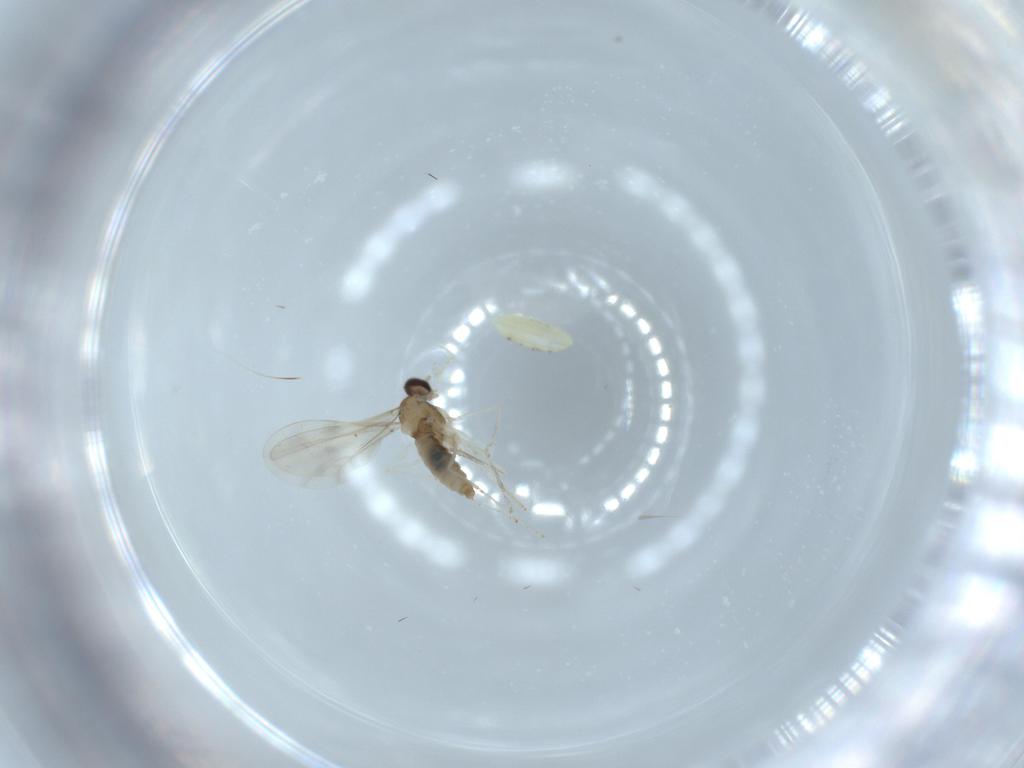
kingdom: Animalia
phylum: Arthropoda
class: Insecta
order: Diptera
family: Cecidomyiidae
